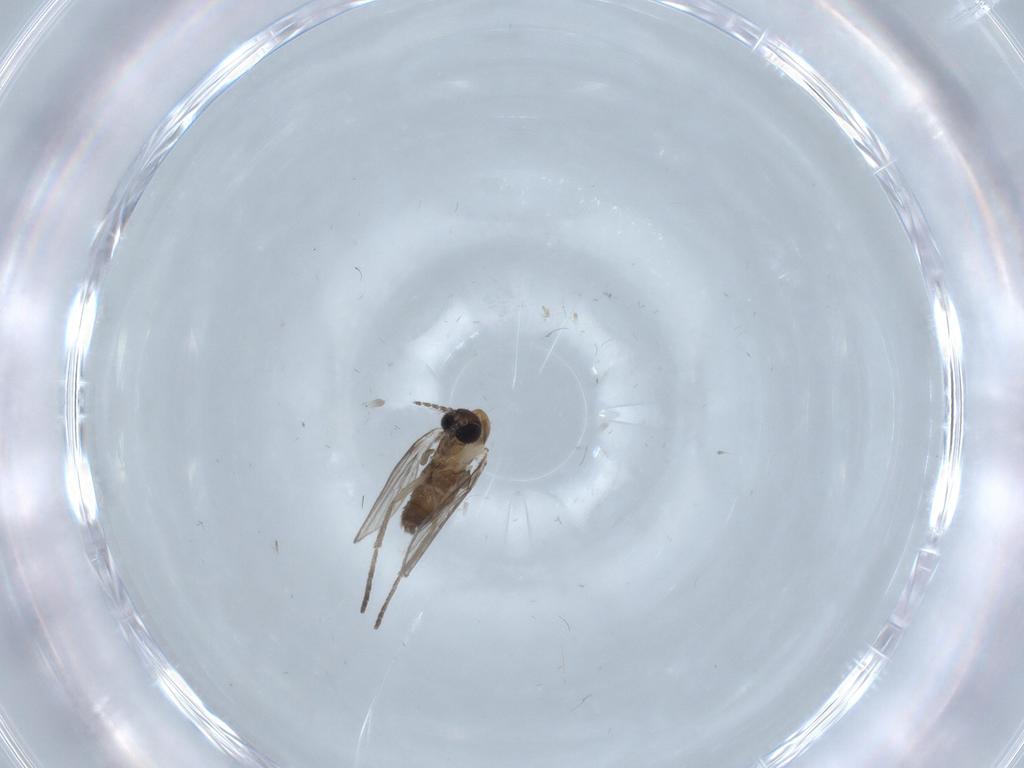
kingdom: Animalia
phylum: Arthropoda
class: Insecta
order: Diptera
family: Psychodidae
